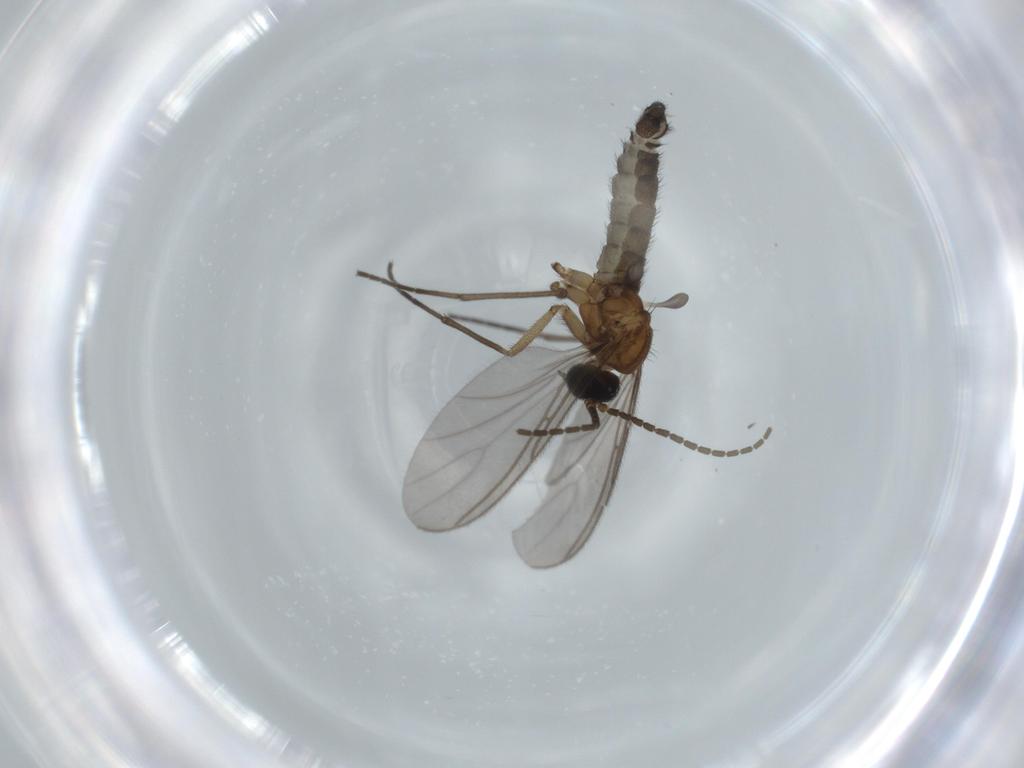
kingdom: Animalia
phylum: Arthropoda
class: Insecta
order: Diptera
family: Sciaridae
